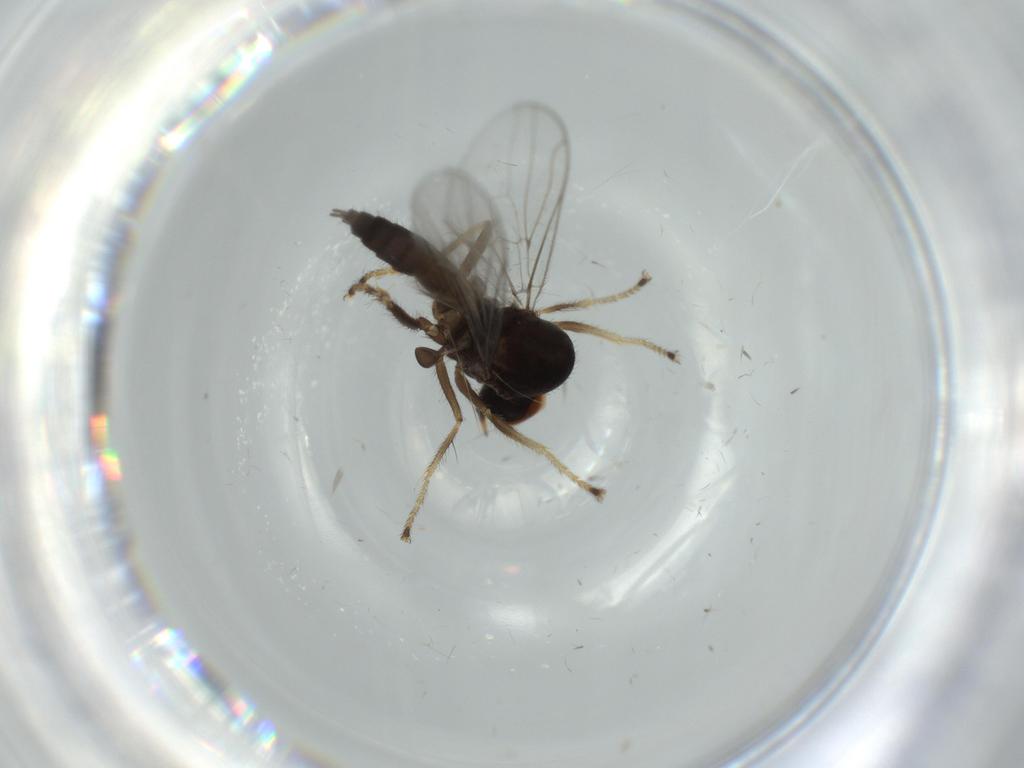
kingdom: Animalia
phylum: Arthropoda
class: Insecta
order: Diptera
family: Hybotidae
